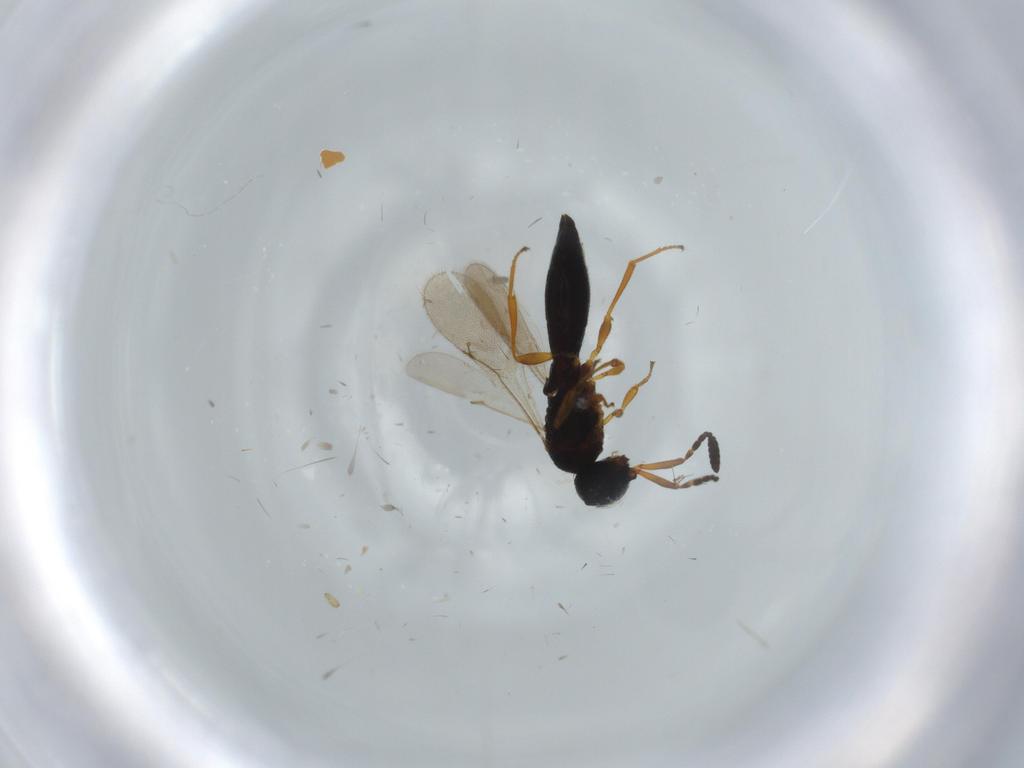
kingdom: Animalia
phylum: Arthropoda
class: Insecta
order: Hymenoptera
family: Scelionidae
